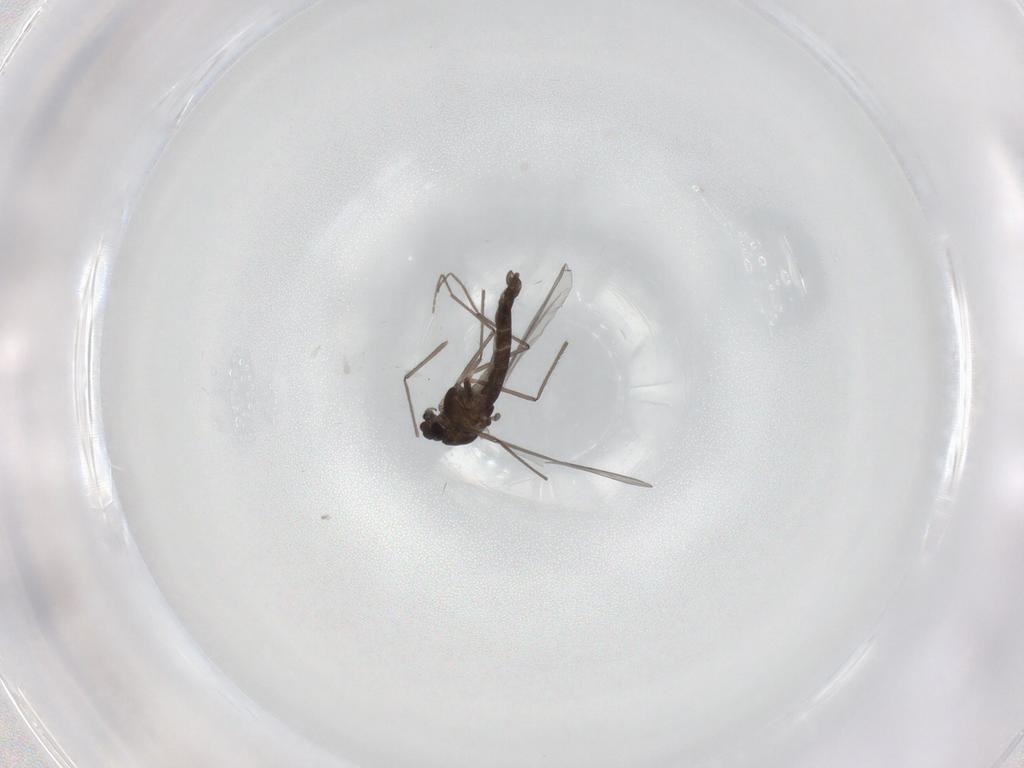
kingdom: Animalia
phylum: Arthropoda
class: Insecta
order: Diptera
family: Chironomidae
